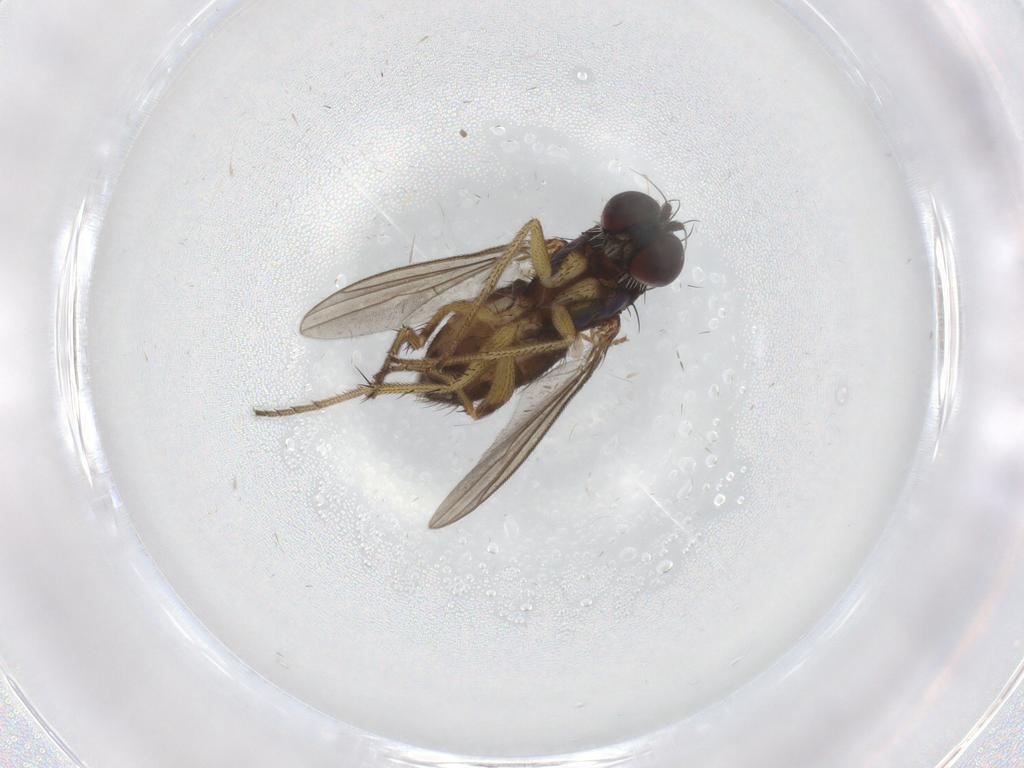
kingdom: Animalia
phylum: Arthropoda
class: Insecta
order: Diptera
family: Dolichopodidae
